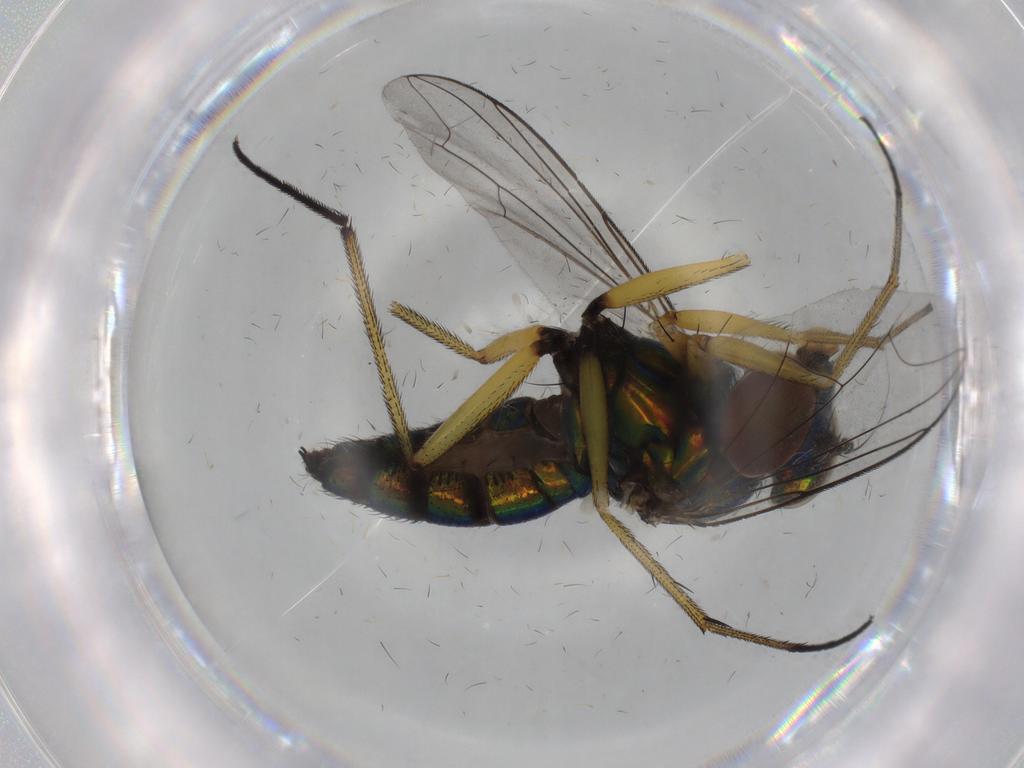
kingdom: Animalia
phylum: Arthropoda
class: Insecta
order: Diptera
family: Dolichopodidae
